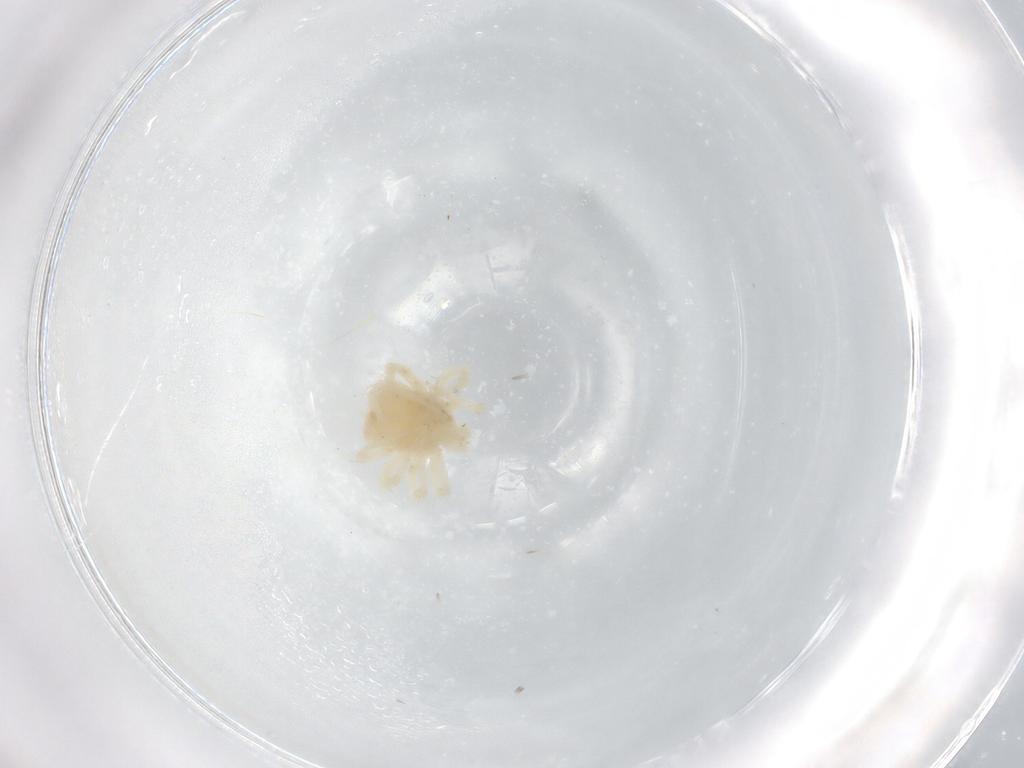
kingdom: Animalia
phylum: Arthropoda
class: Arachnida
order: Trombidiformes
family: Anystidae
